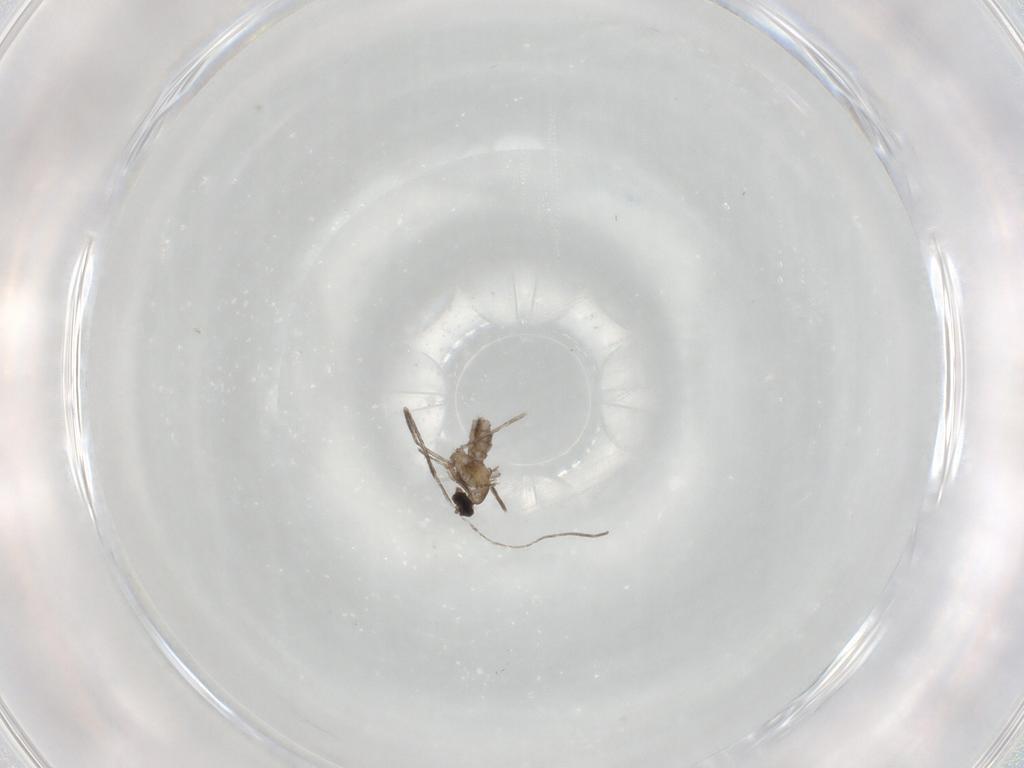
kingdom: Animalia
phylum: Arthropoda
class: Insecta
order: Diptera
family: Cecidomyiidae
